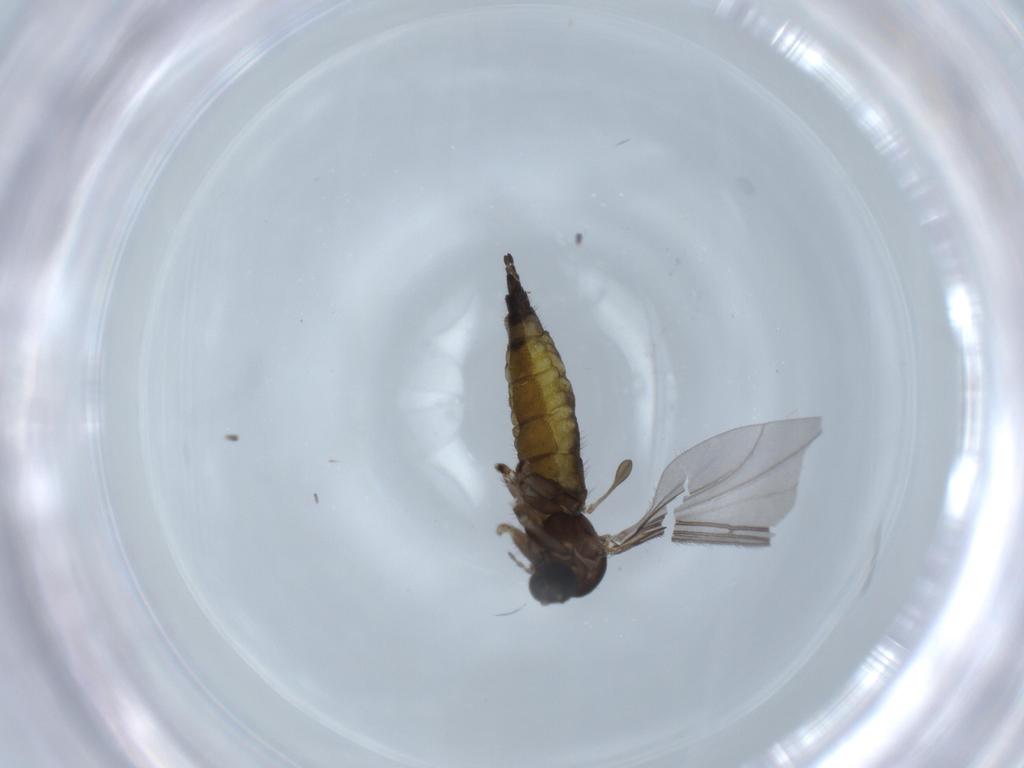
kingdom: Animalia
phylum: Arthropoda
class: Insecta
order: Diptera
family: Sciaridae
